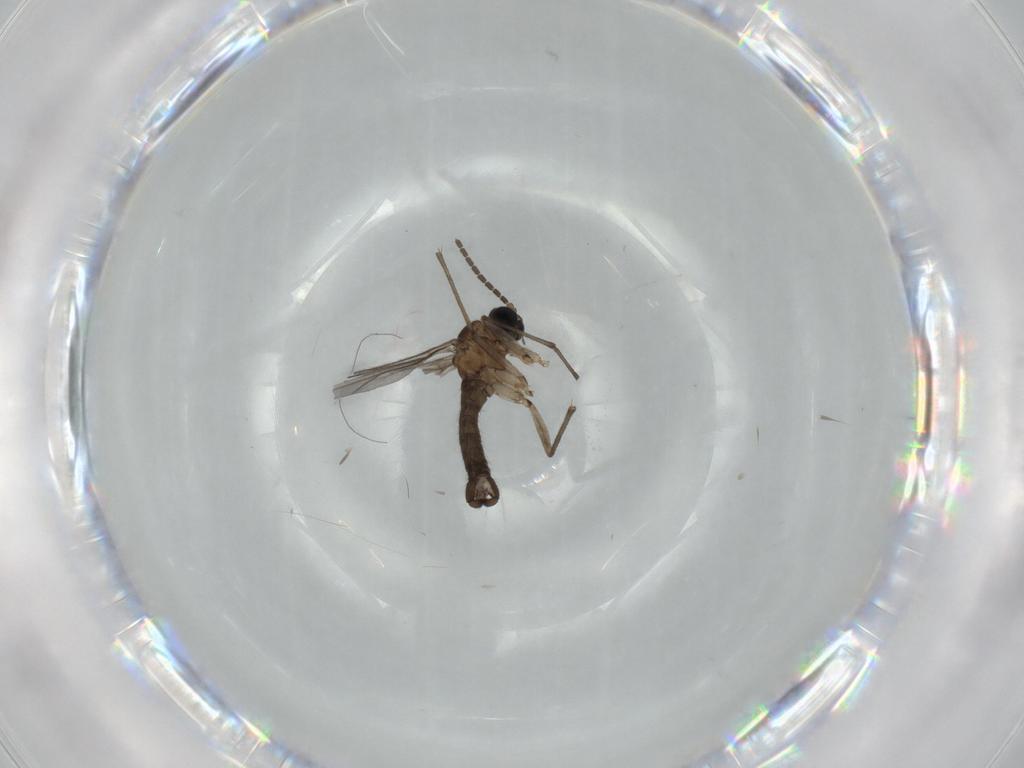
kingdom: Animalia
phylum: Arthropoda
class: Insecta
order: Diptera
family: Sciaridae
